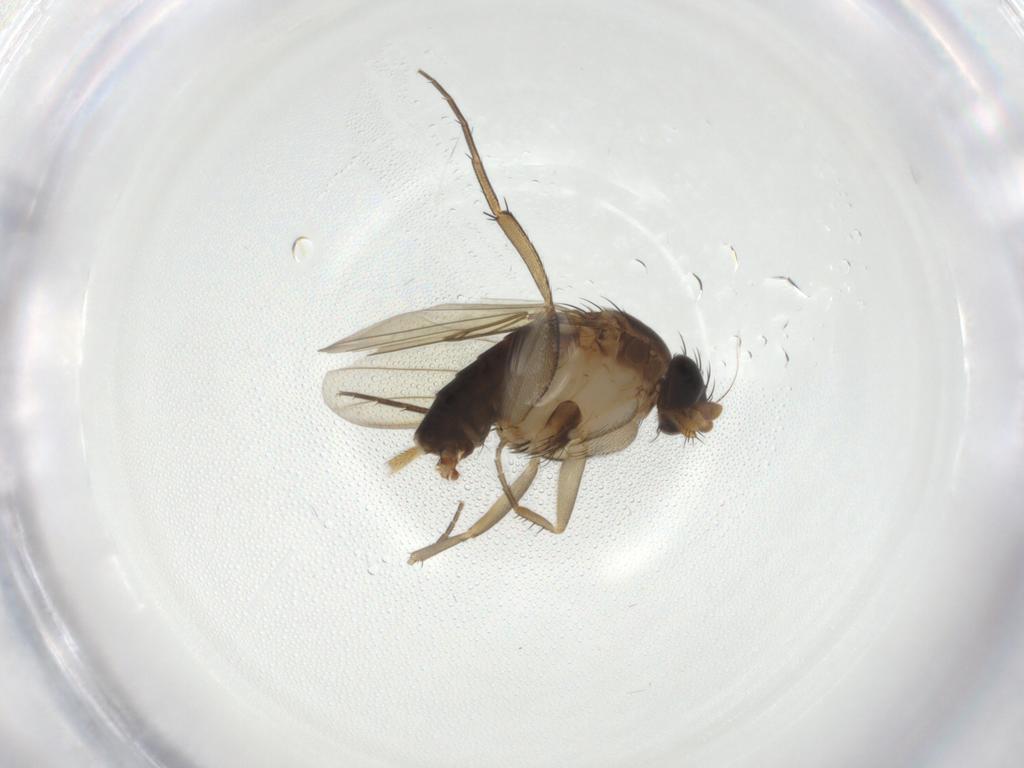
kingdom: Animalia
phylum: Arthropoda
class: Insecta
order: Diptera
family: Phoridae
